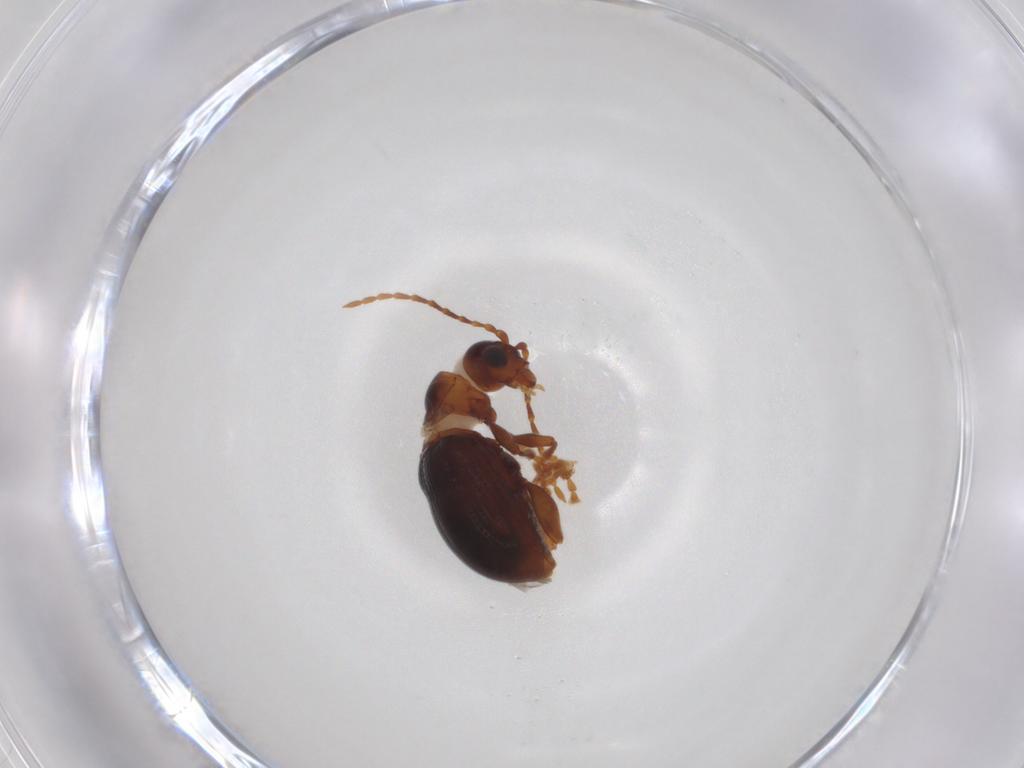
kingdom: Animalia
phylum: Arthropoda
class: Insecta
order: Coleoptera
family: Chrysomelidae
